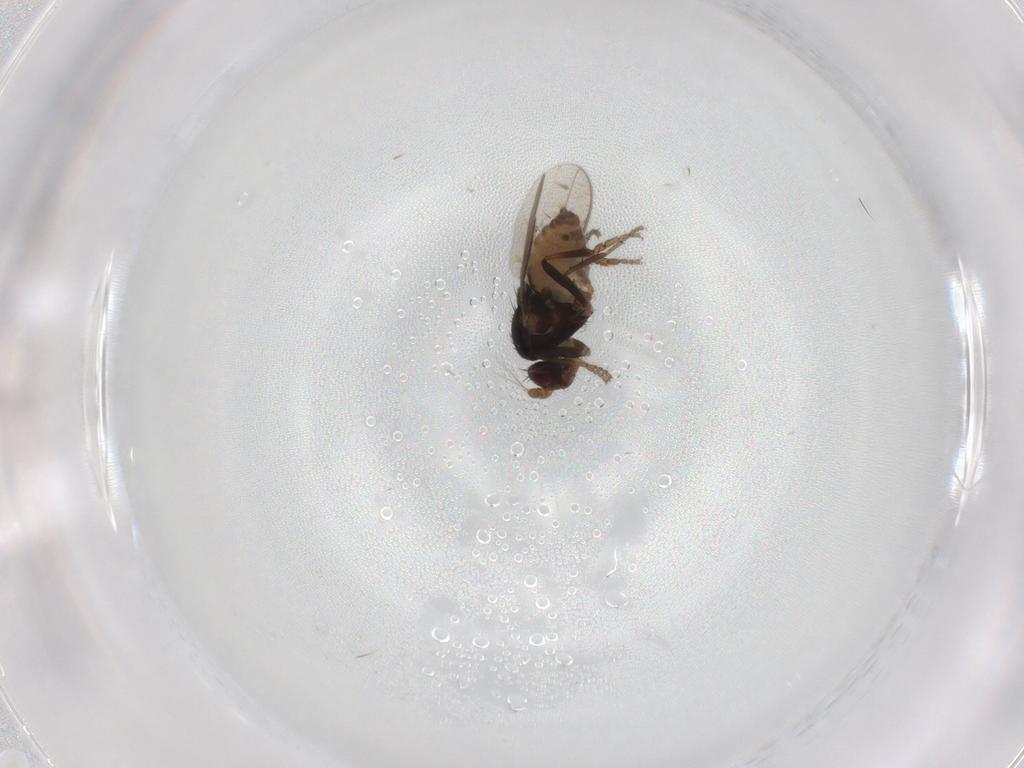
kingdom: Animalia
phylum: Arthropoda
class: Insecta
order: Diptera
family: Sphaeroceridae
